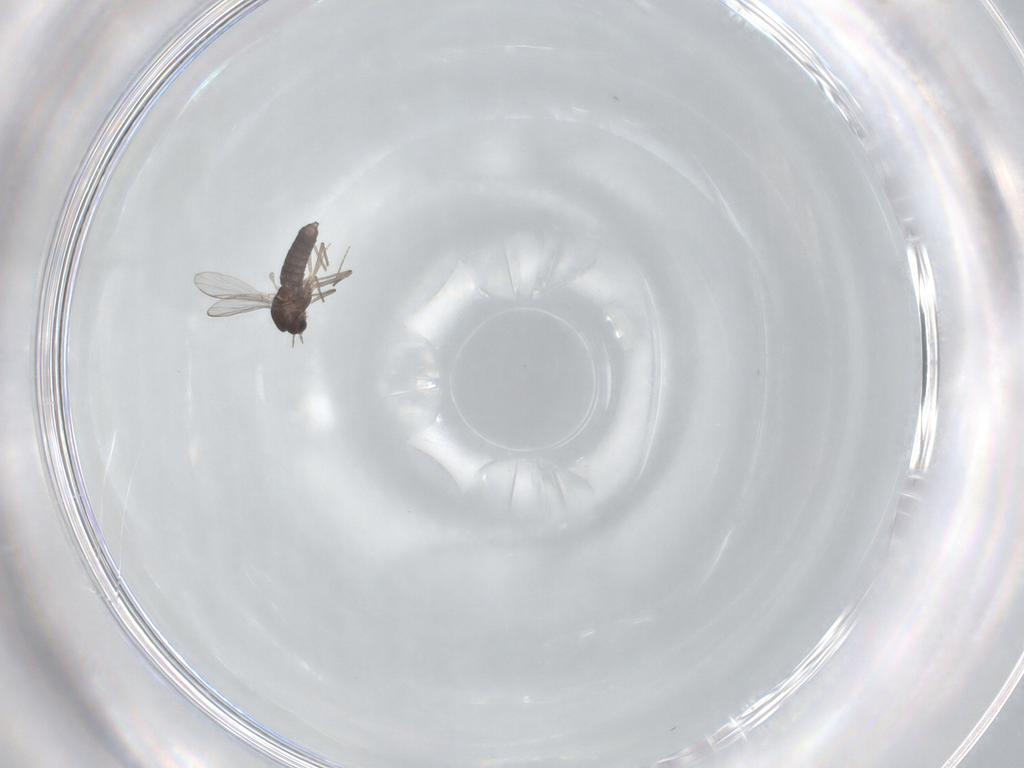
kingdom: Animalia
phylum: Arthropoda
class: Insecta
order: Diptera
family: Chironomidae
